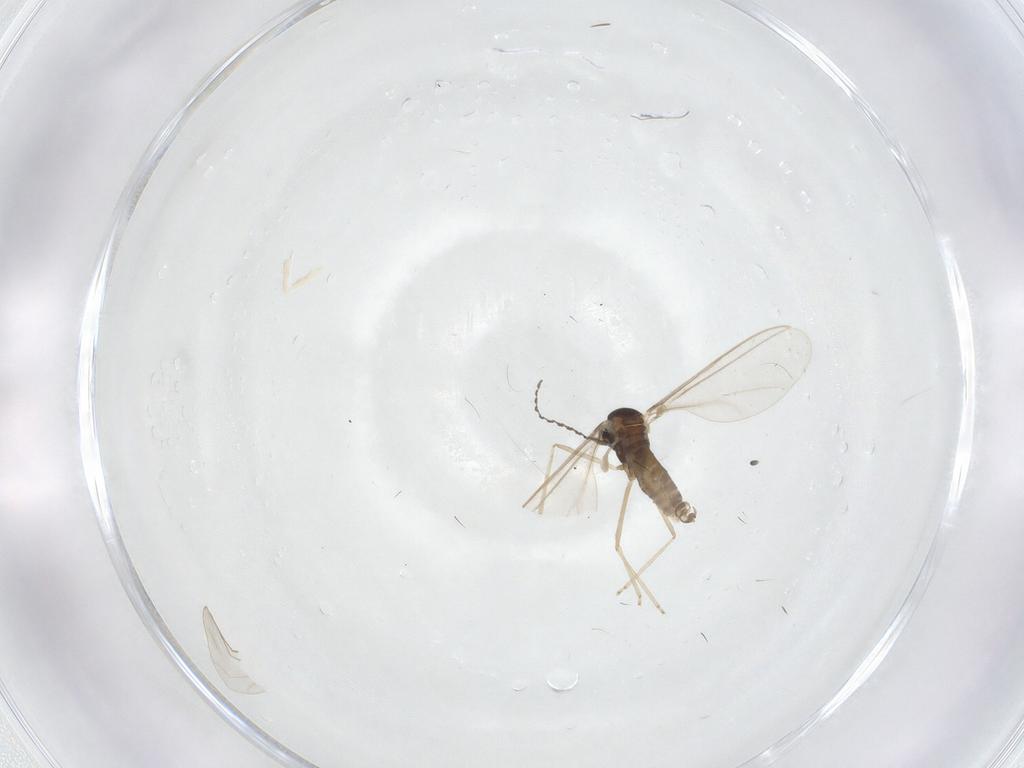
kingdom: Animalia
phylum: Arthropoda
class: Insecta
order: Diptera
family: Cecidomyiidae
